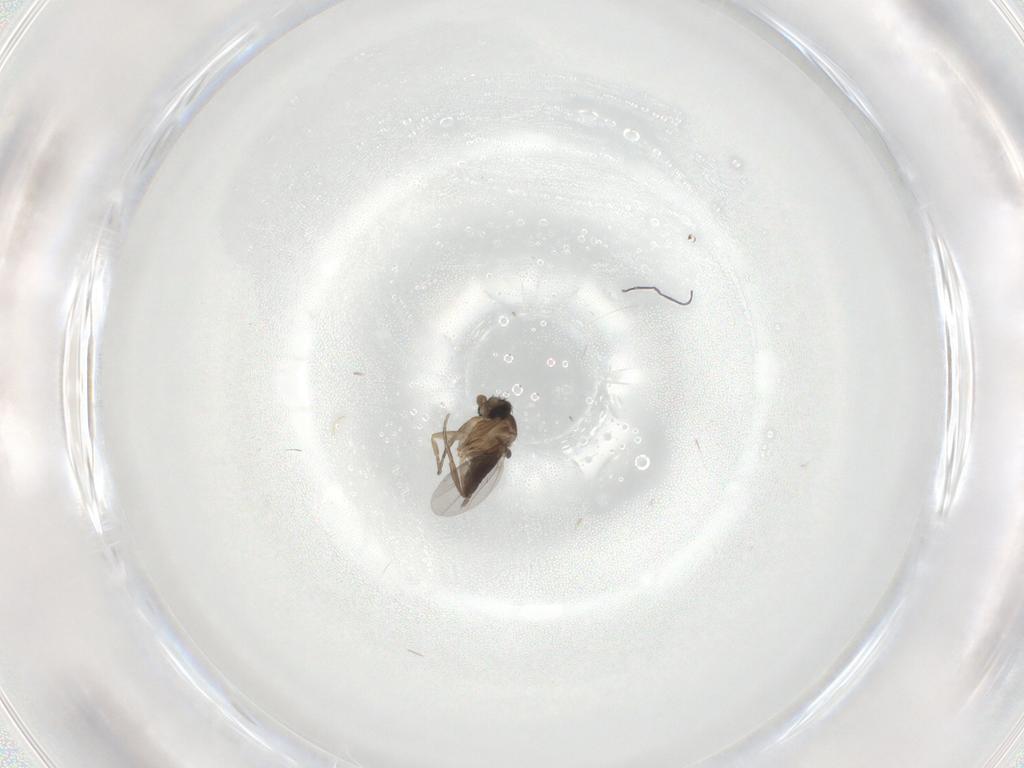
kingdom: Animalia
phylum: Arthropoda
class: Insecta
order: Diptera
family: Phoridae
